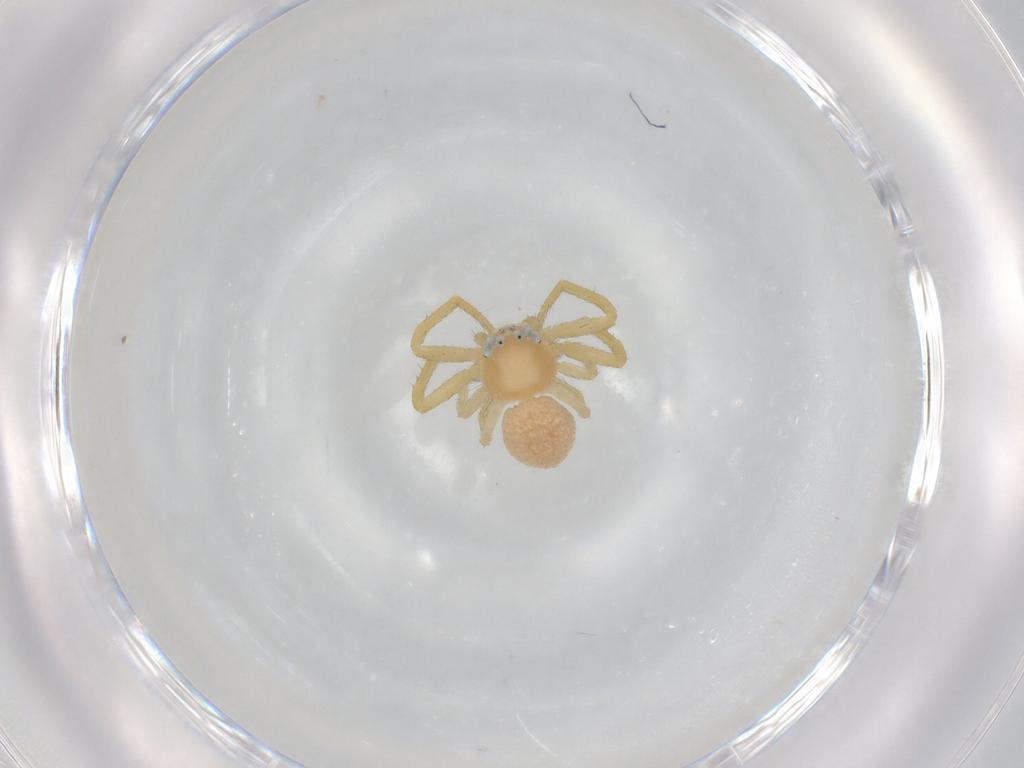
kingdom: Animalia
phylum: Arthropoda
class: Arachnida
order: Araneae
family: Thomisidae
